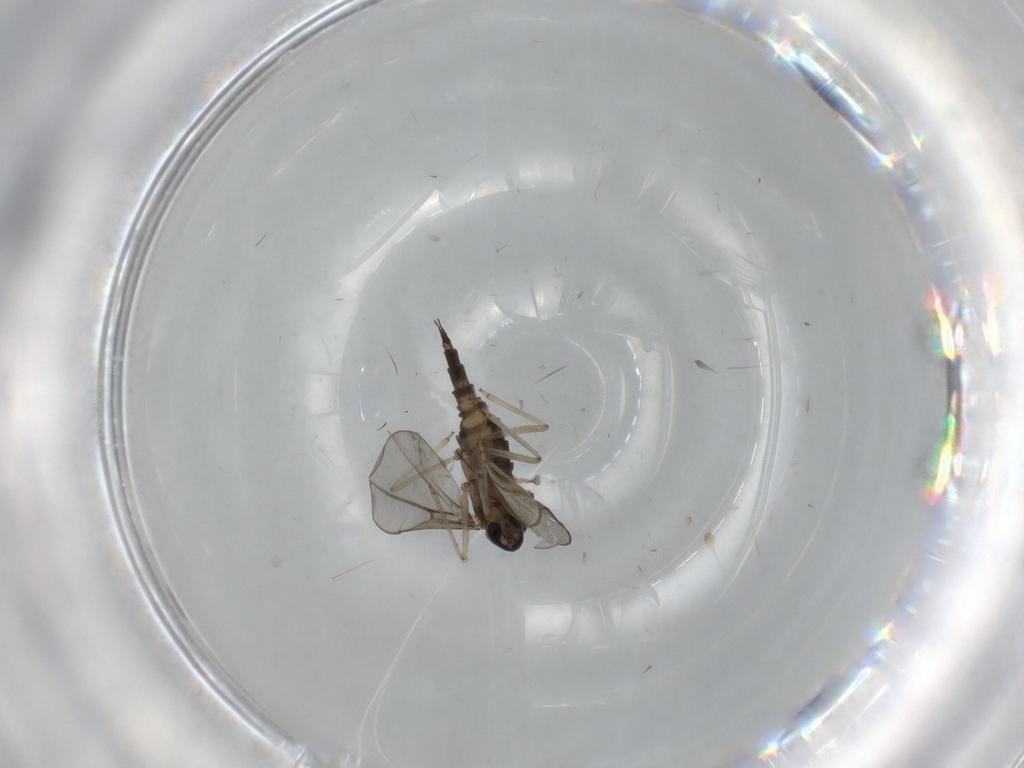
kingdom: Animalia
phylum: Arthropoda
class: Insecta
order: Diptera
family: Cecidomyiidae
